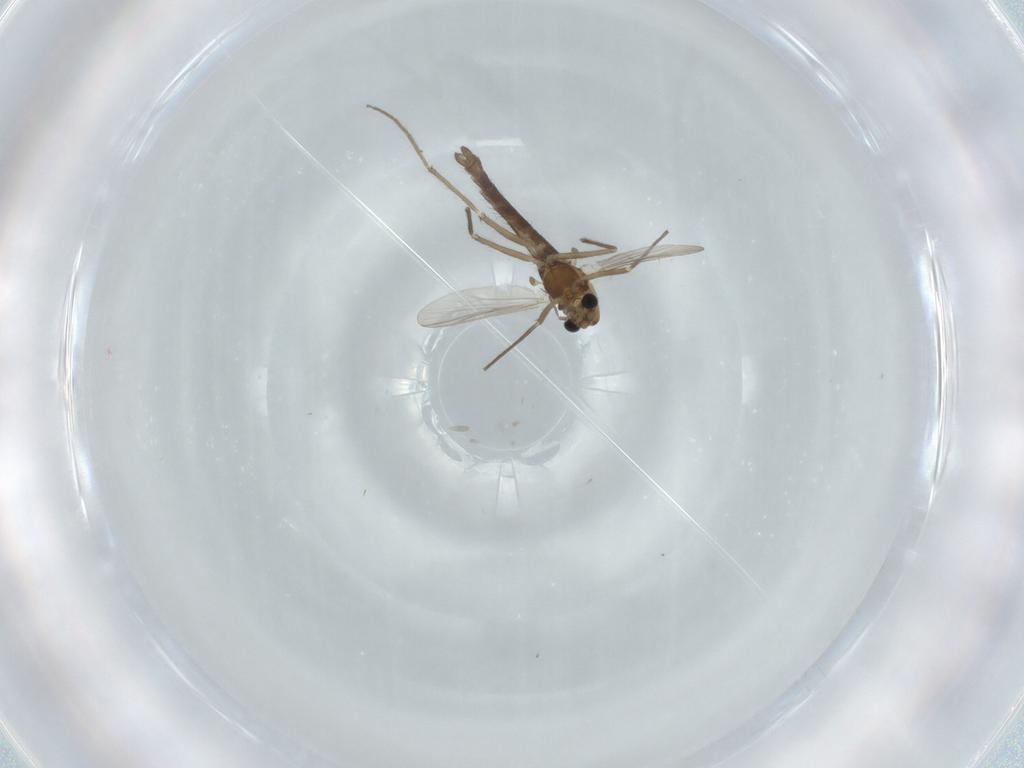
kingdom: Animalia
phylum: Arthropoda
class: Insecta
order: Diptera
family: Chironomidae
